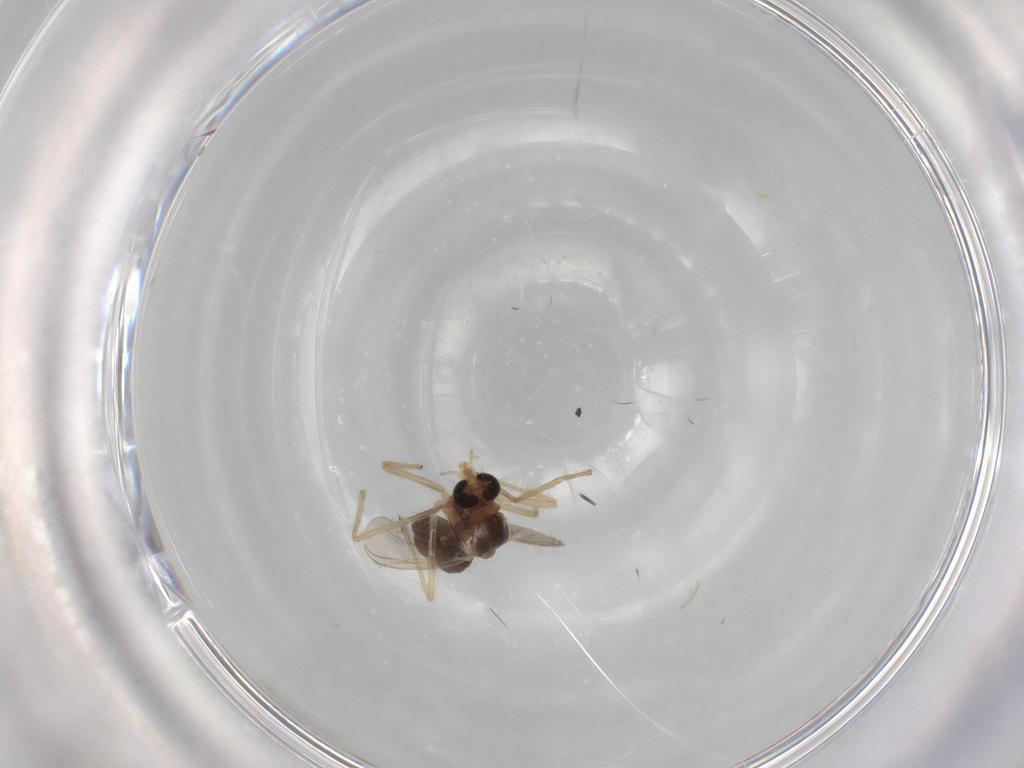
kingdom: Animalia
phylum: Arthropoda
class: Insecta
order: Diptera
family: Chironomidae
